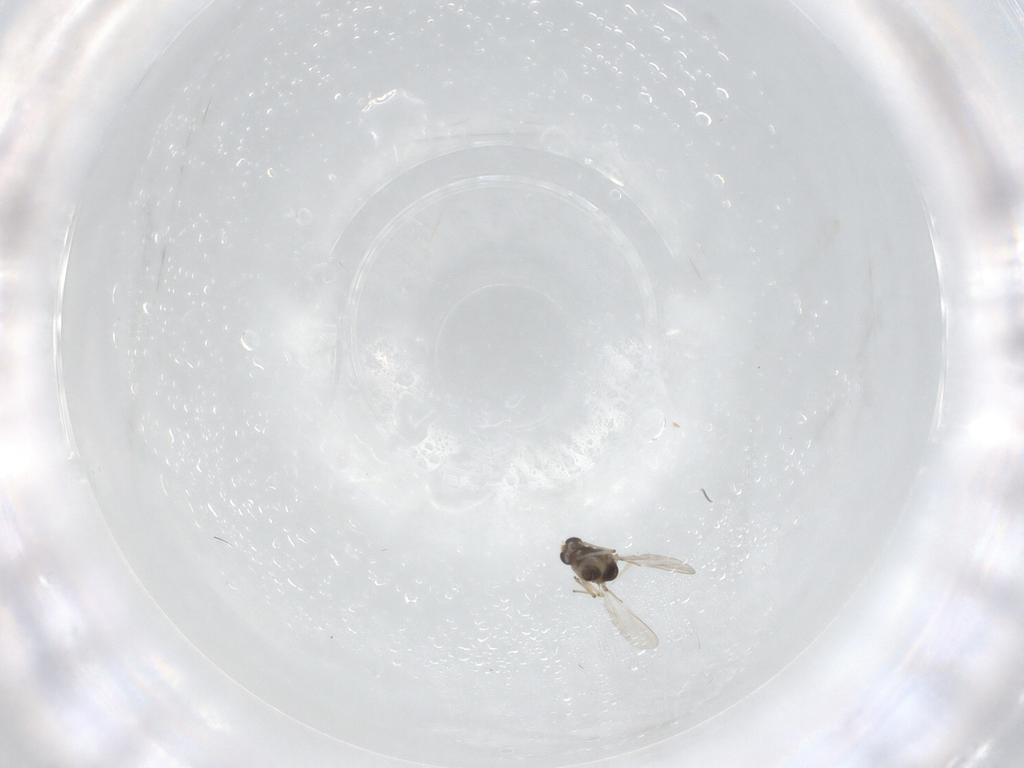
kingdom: Animalia
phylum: Arthropoda
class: Insecta
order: Diptera
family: Chironomidae
